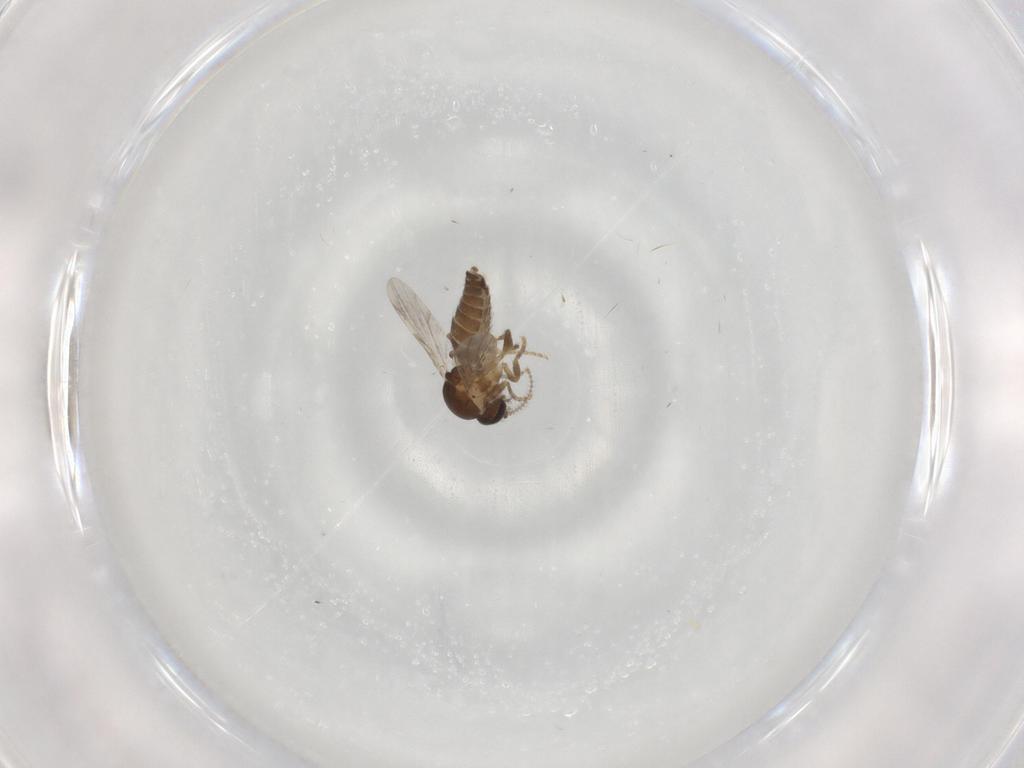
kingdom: Animalia
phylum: Arthropoda
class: Insecta
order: Diptera
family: Ceratopogonidae
